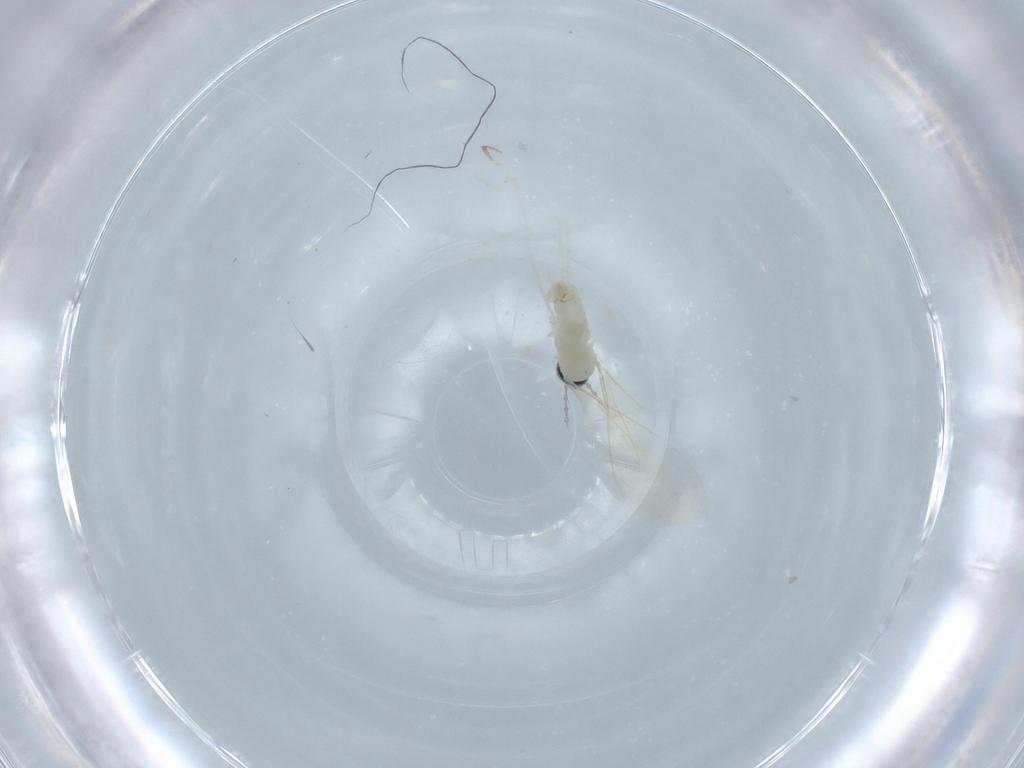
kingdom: Animalia
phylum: Arthropoda
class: Insecta
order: Diptera
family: Cecidomyiidae
